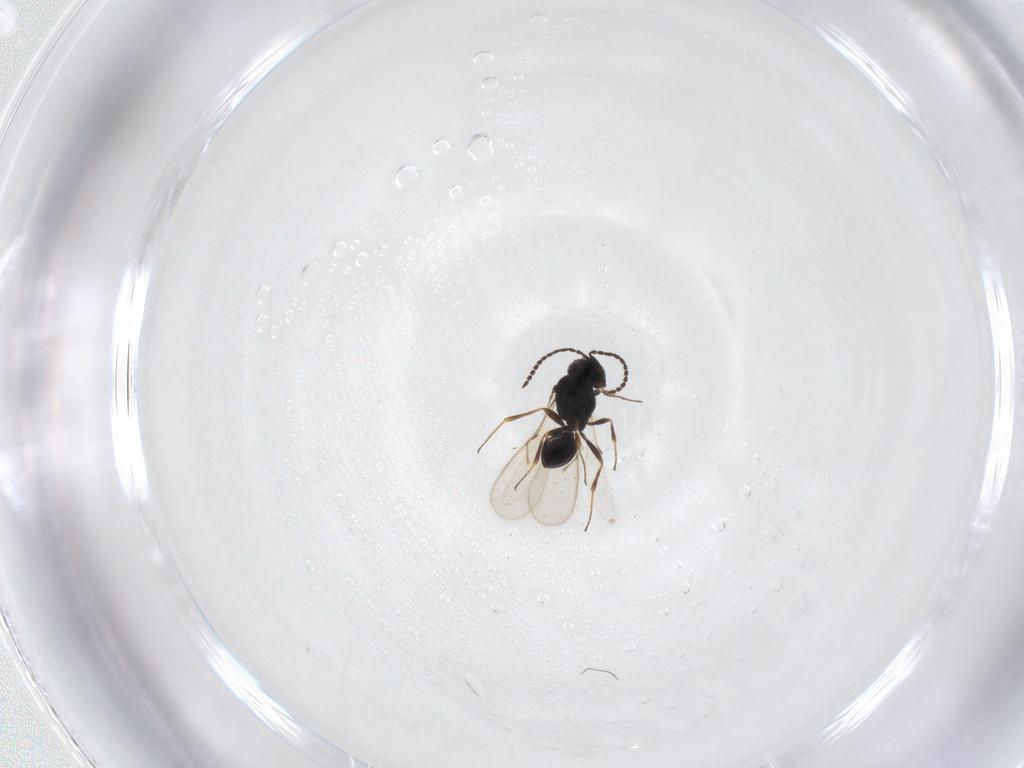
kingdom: Animalia
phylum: Arthropoda
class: Insecta
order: Hymenoptera
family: Scelionidae
